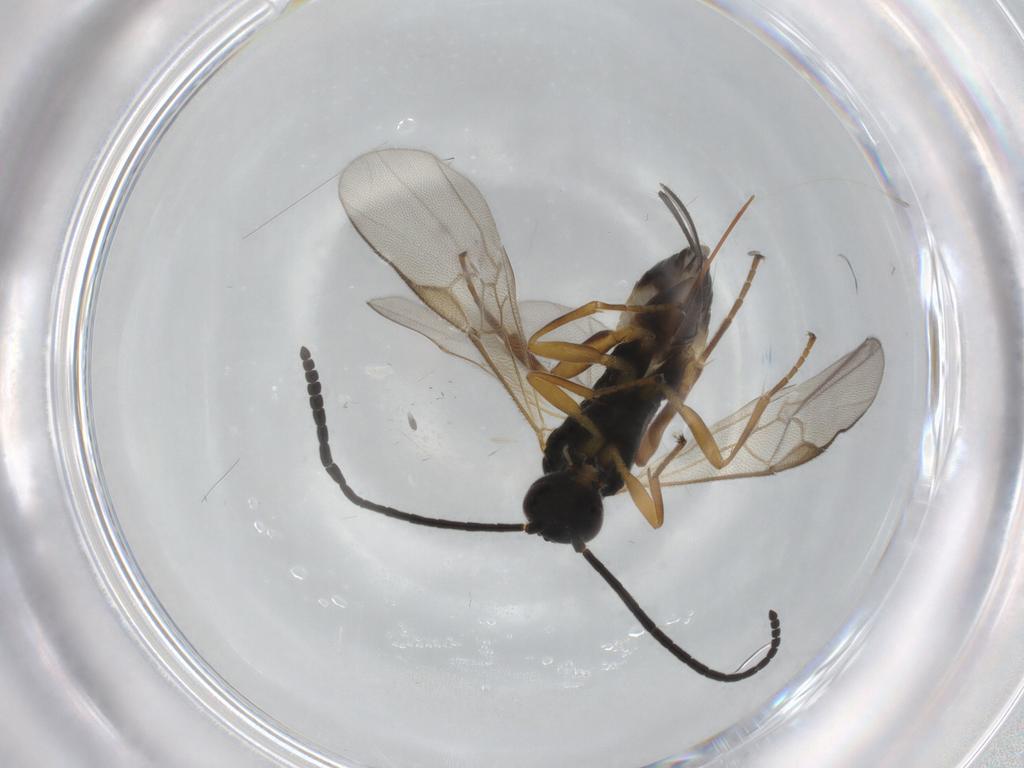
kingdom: Animalia
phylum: Arthropoda
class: Insecta
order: Hymenoptera
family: Braconidae
